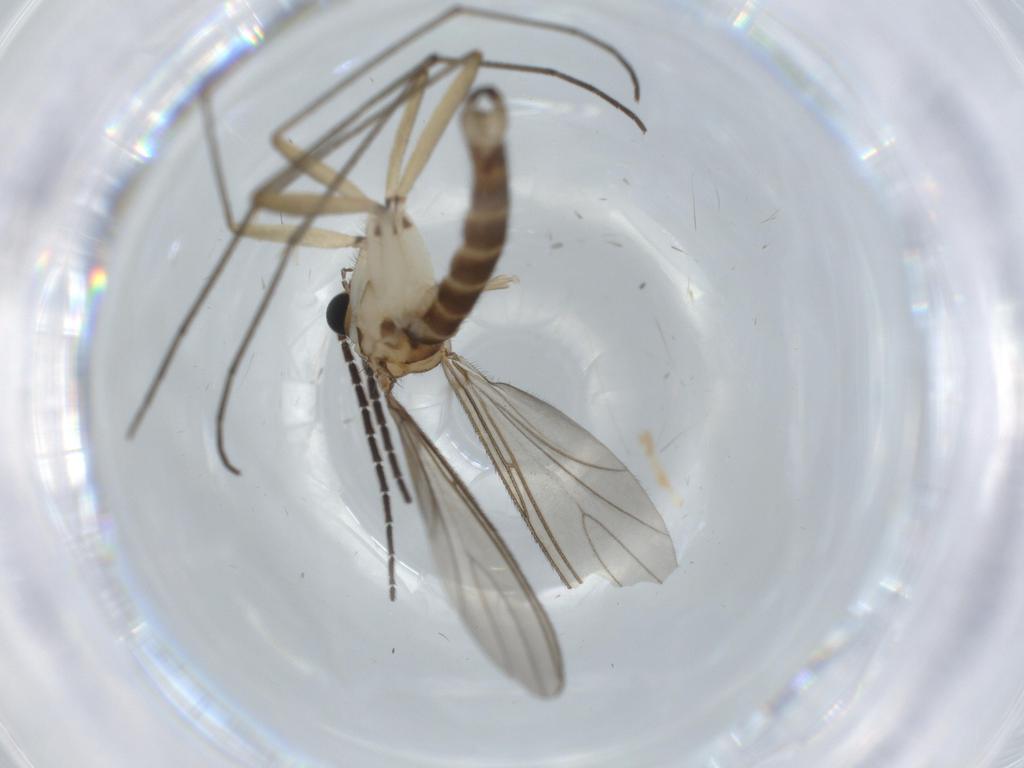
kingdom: Animalia
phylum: Arthropoda
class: Insecta
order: Diptera
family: Sciaridae
